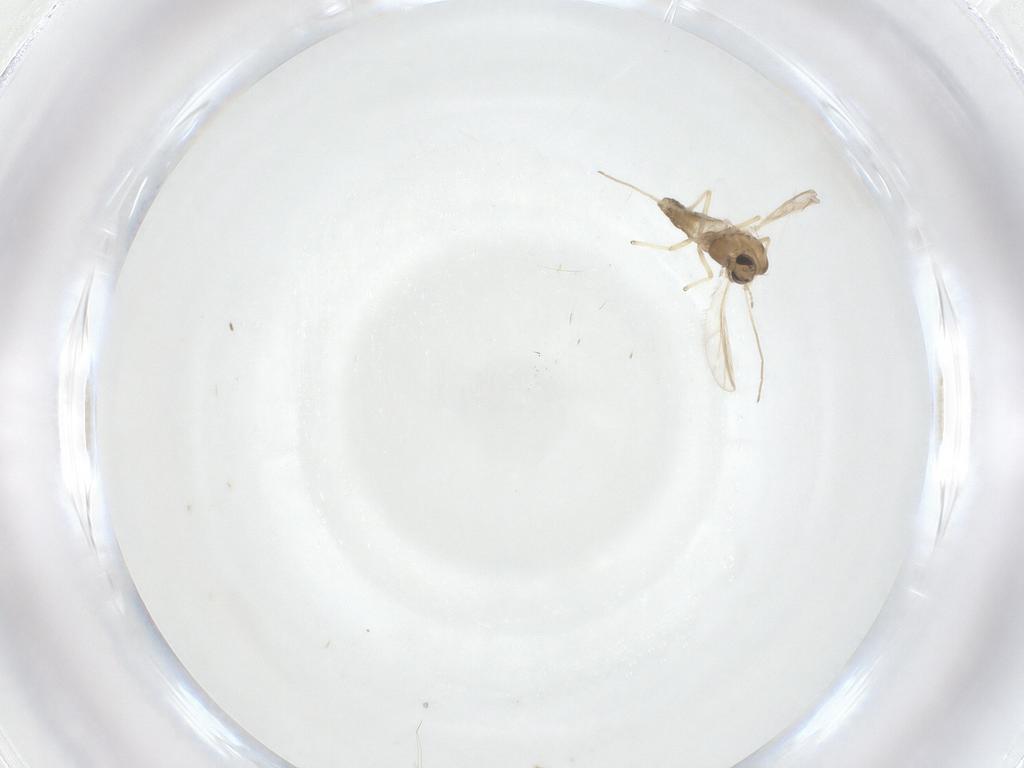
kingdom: Animalia
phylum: Arthropoda
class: Insecta
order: Diptera
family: Chironomidae
